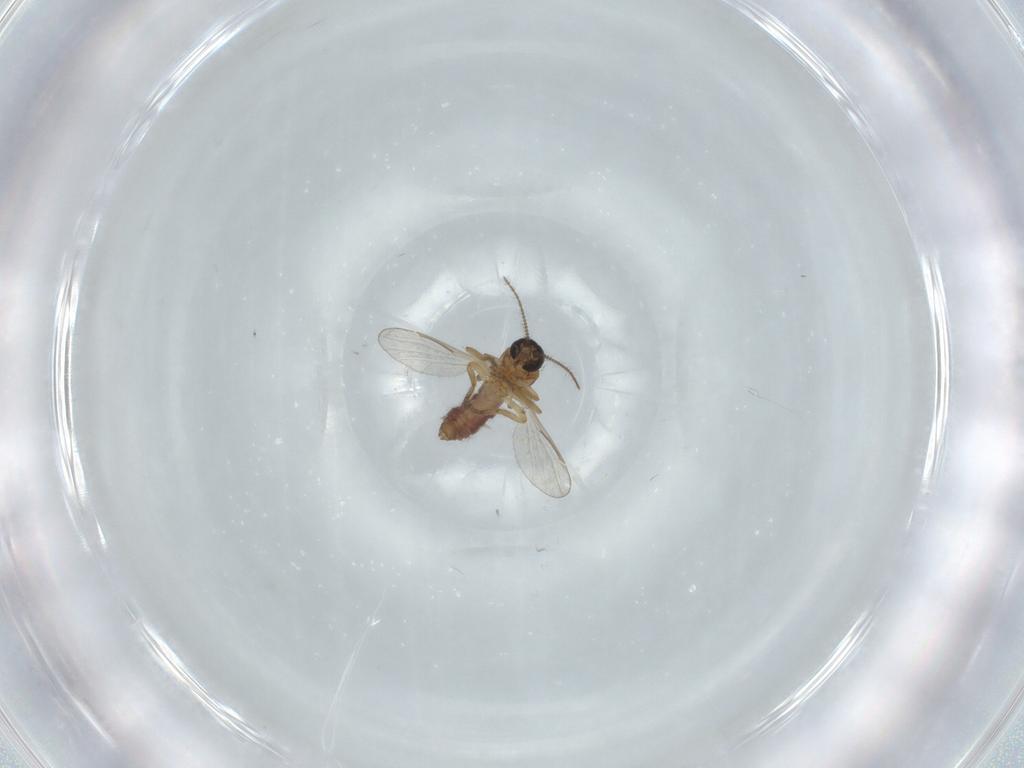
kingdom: Animalia
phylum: Arthropoda
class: Insecta
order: Diptera
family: Ceratopogonidae
